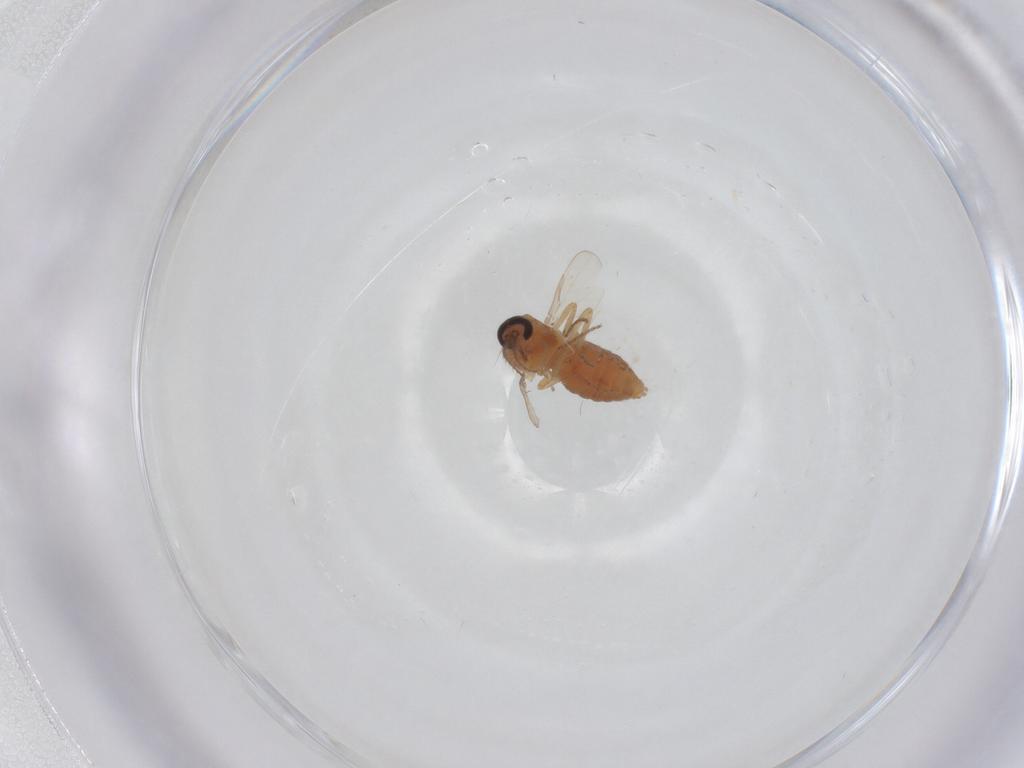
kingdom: Animalia
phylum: Arthropoda
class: Insecta
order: Diptera
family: Ceratopogonidae
